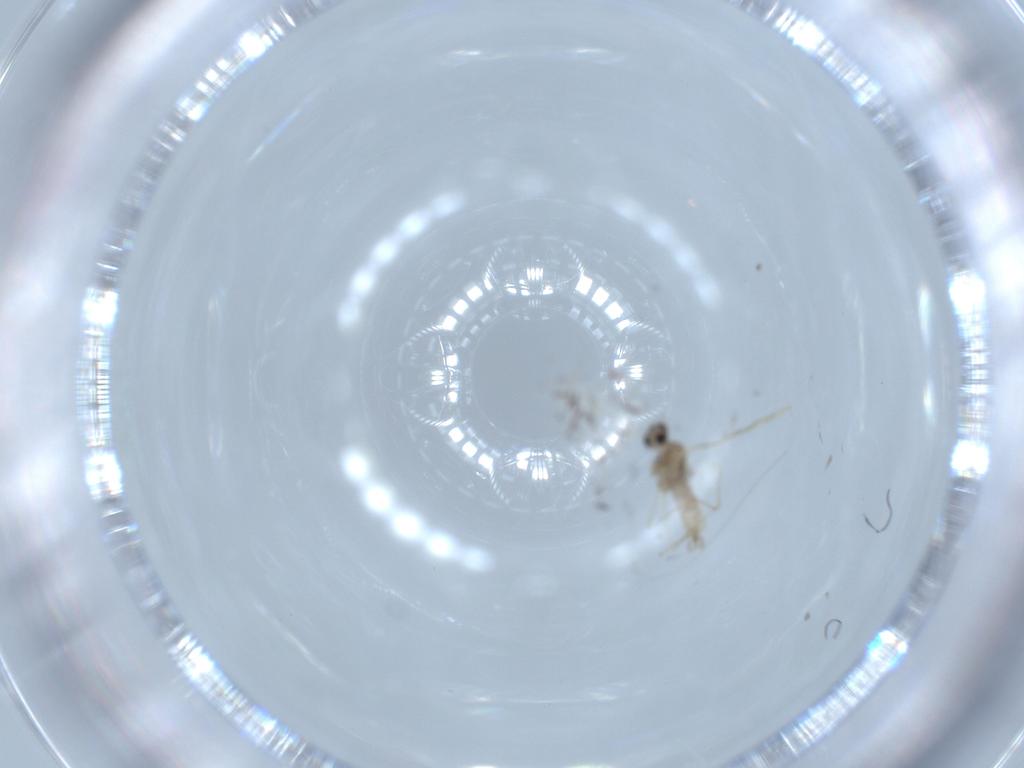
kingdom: Animalia
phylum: Arthropoda
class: Insecta
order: Diptera
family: Cecidomyiidae
